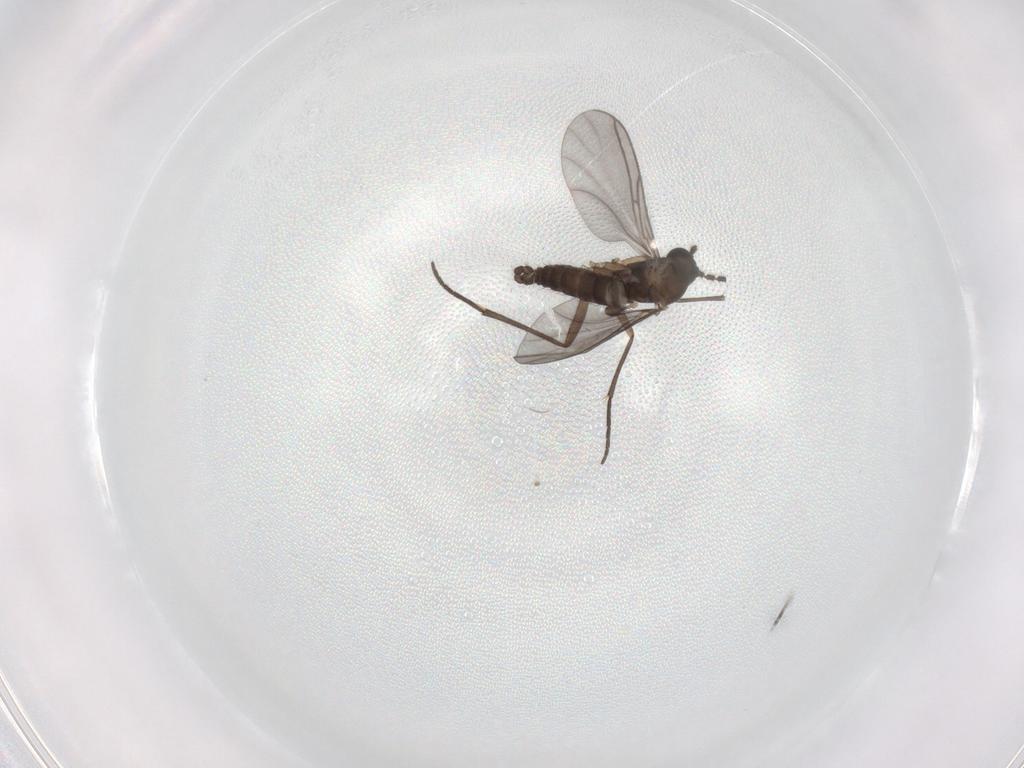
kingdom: Animalia
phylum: Arthropoda
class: Insecta
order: Diptera
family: Sciaridae
